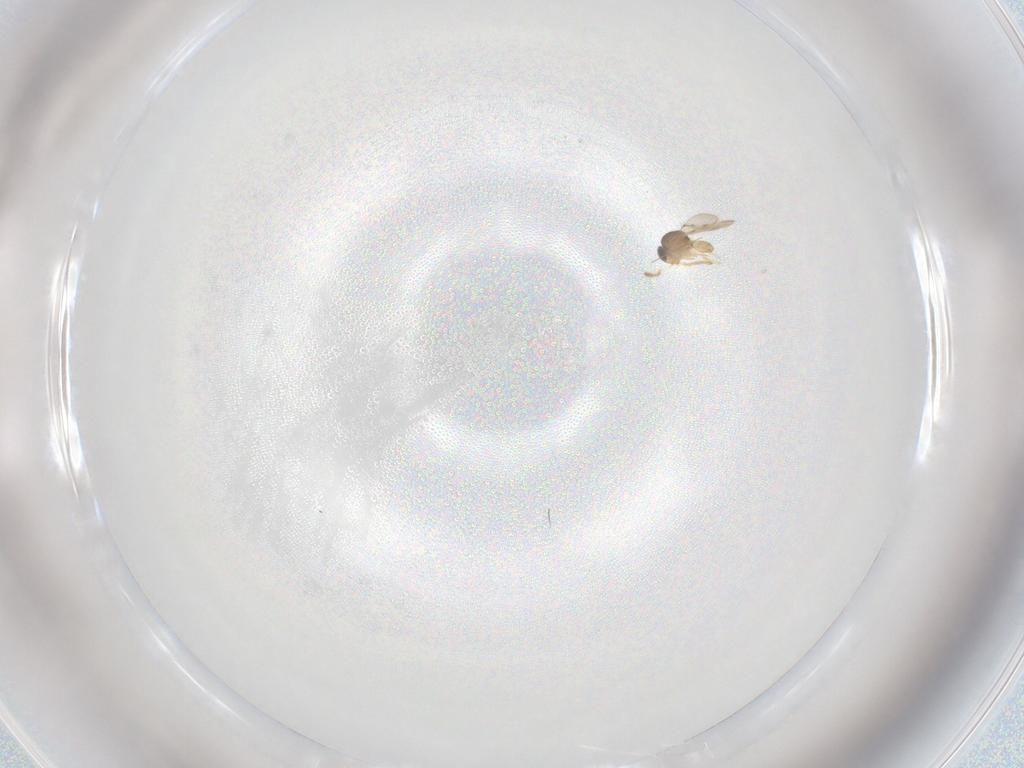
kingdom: Animalia
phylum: Arthropoda
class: Insecta
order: Hymenoptera
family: Scelionidae
